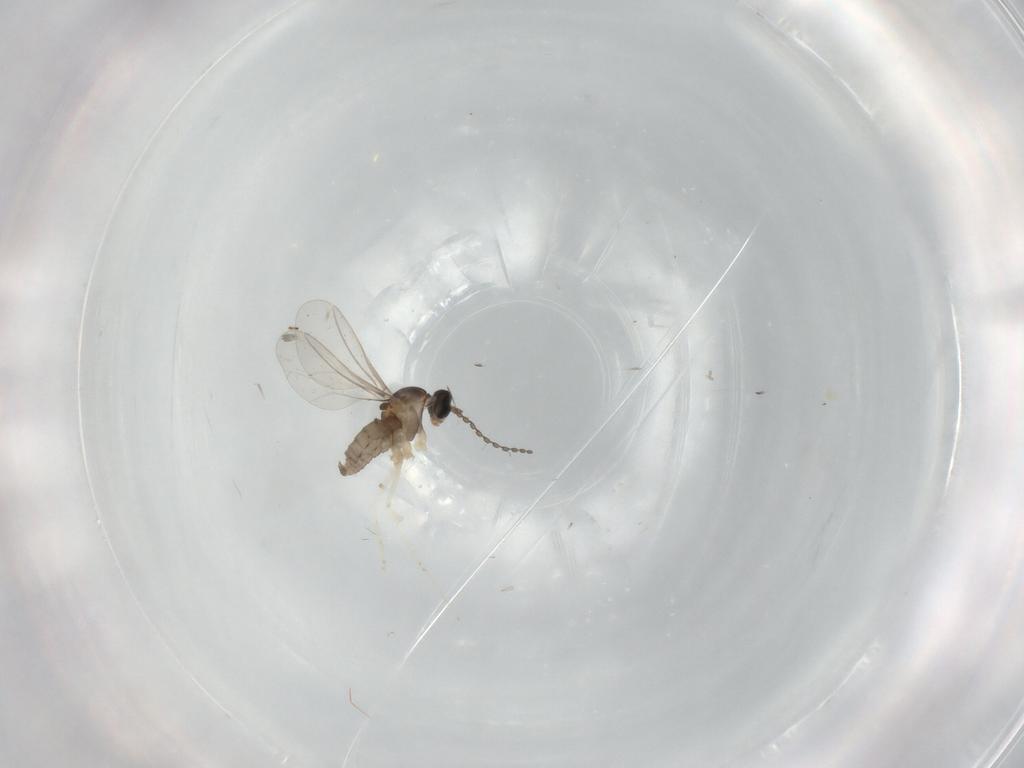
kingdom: Animalia
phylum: Arthropoda
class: Insecta
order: Diptera
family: Cecidomyiidae
